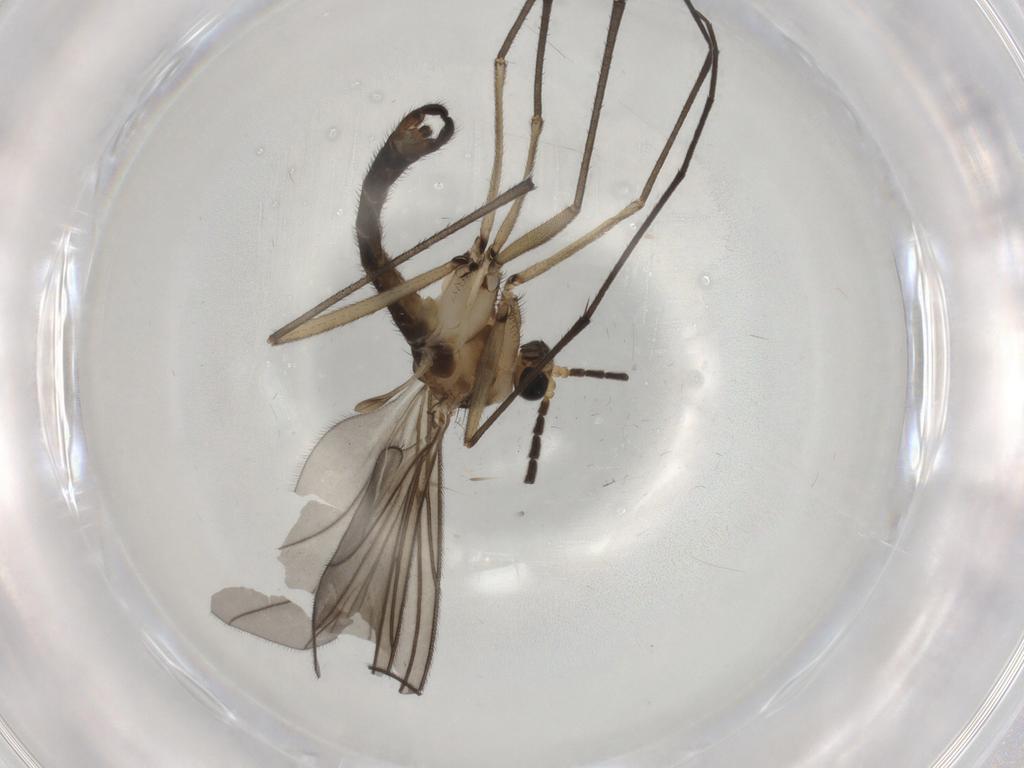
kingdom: Animalia
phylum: Arthropoda
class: Insecta
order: Diptera
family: Sciaridae
